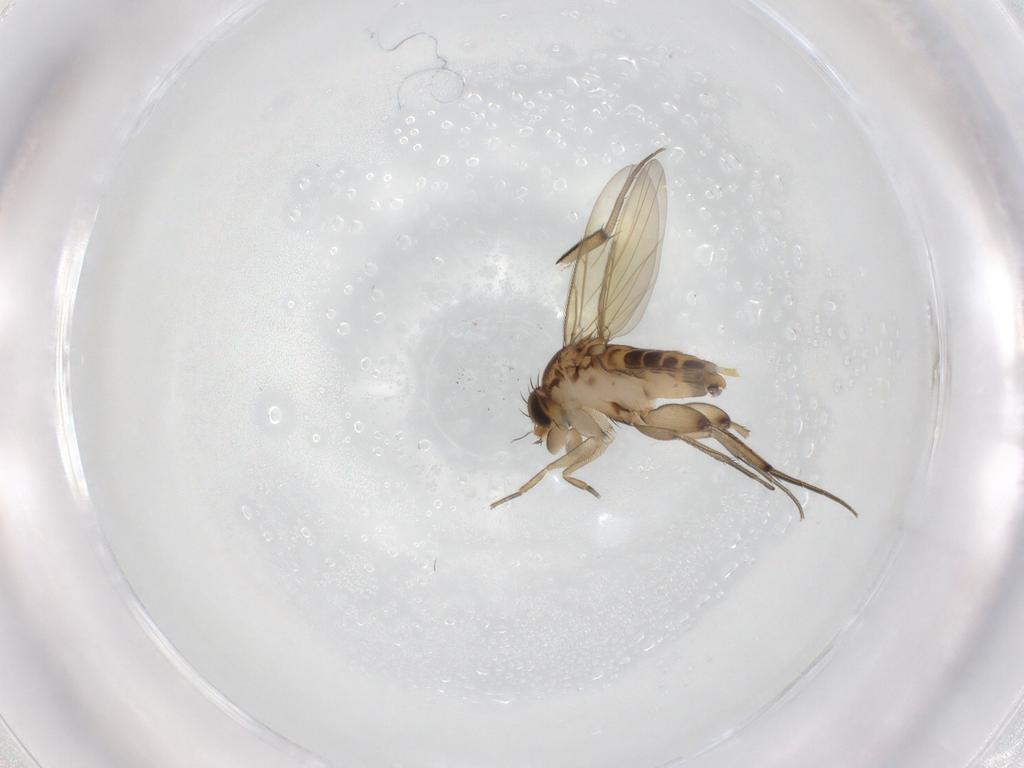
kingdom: Animalia
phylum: Arthropoda
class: Insecta
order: Diptera
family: Phoridae
